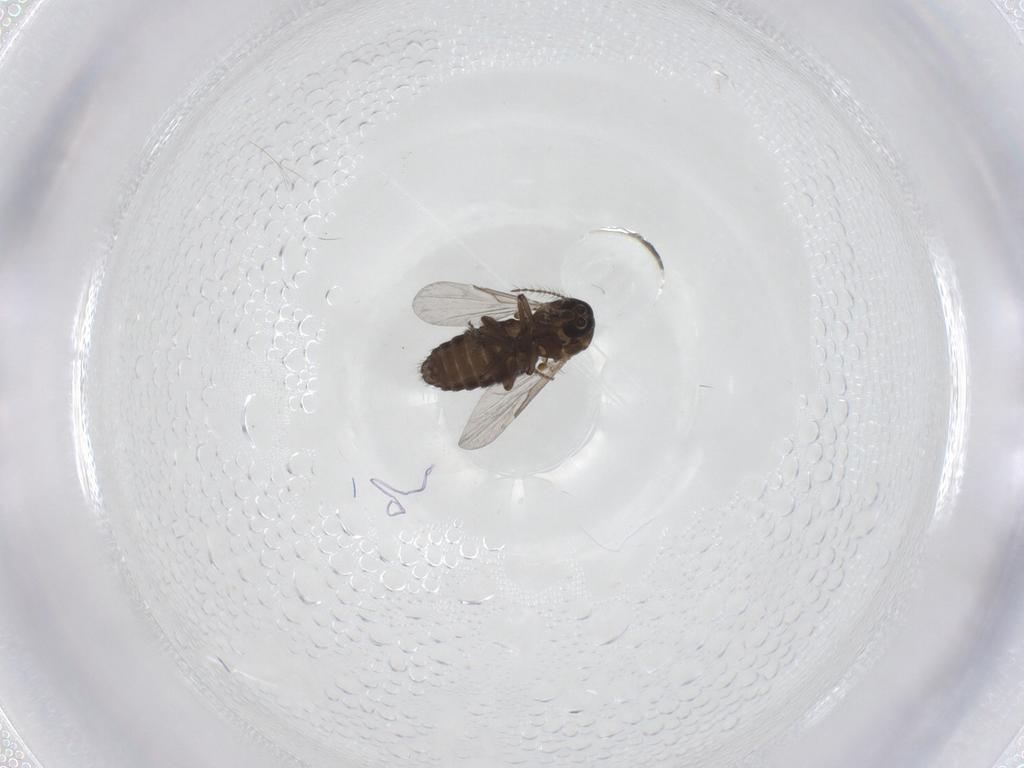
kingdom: Animalia
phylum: Arthropoda
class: Insecta
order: Diptera
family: Ceratopogonidae
